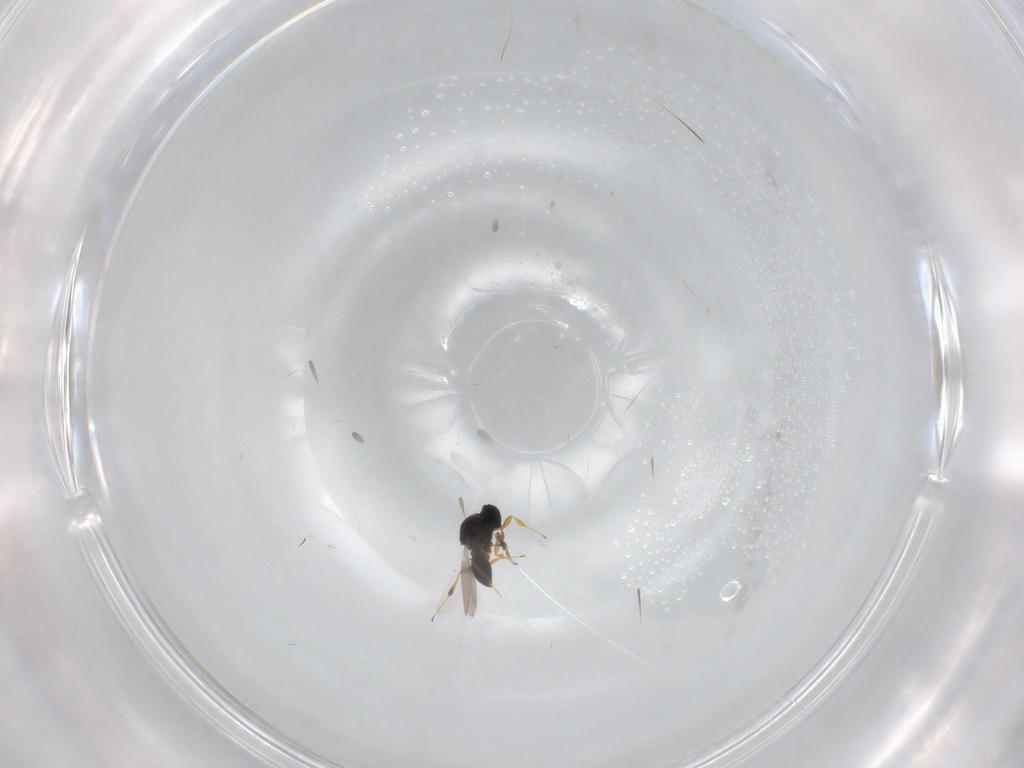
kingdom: Animalia
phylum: Arthropoda
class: Insecta
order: Hymenoptera
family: Platygastridae
